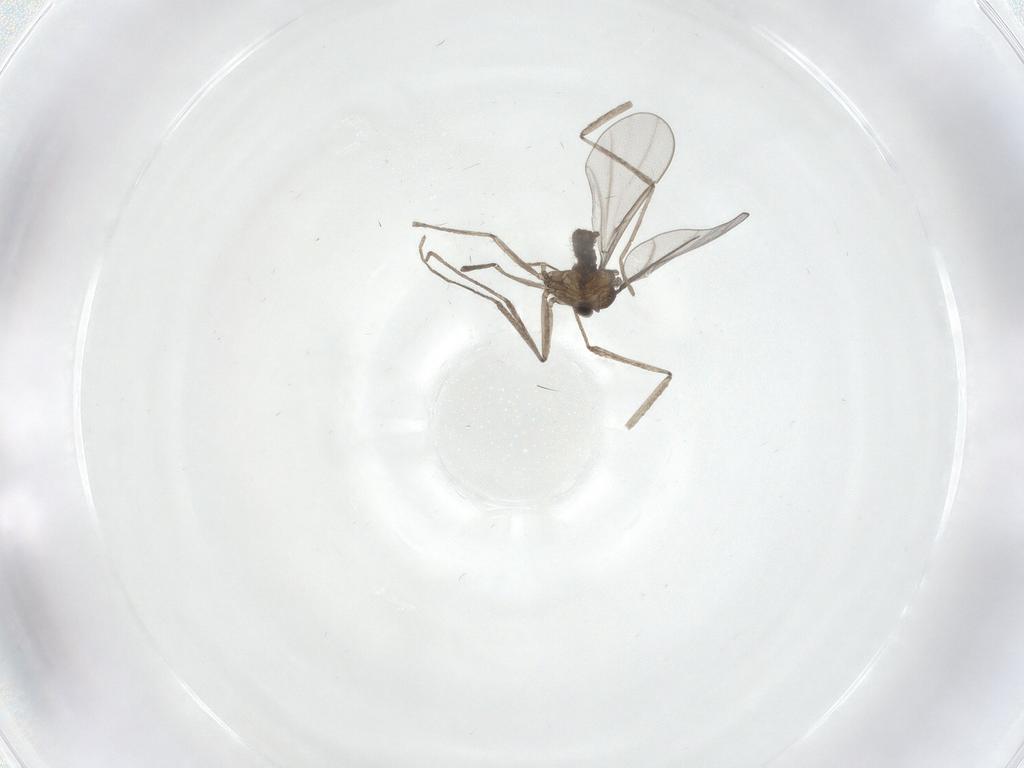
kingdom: Animalia
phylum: Arthropoda
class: Insecta
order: Diptera
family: Cecidomyiidae
